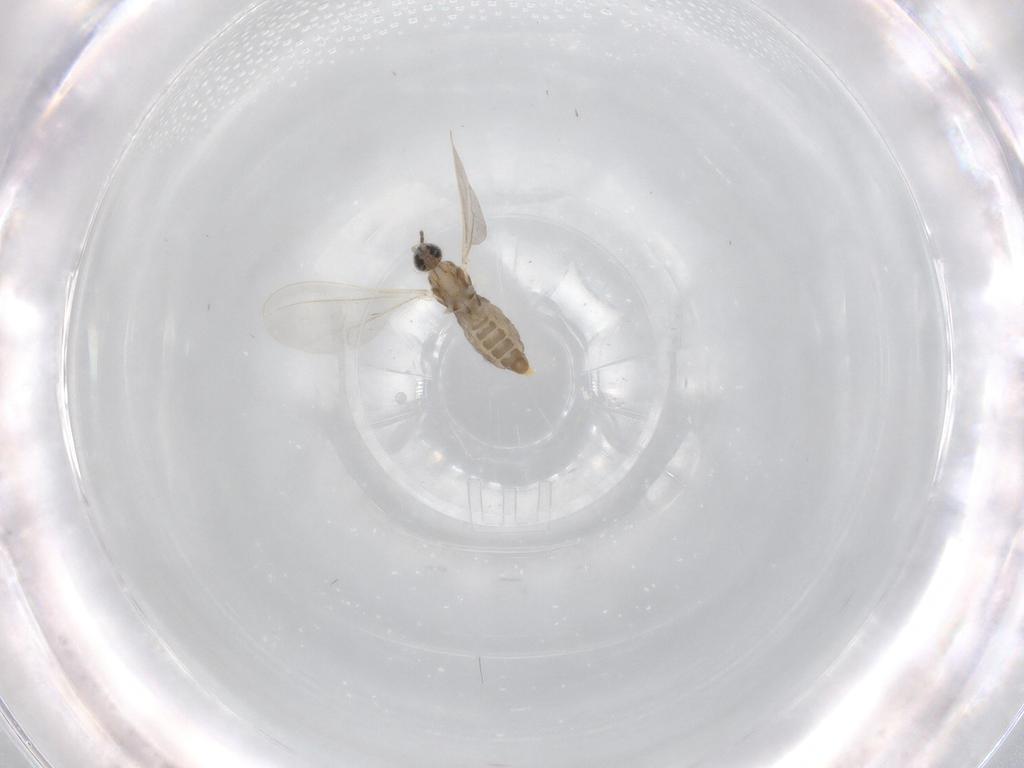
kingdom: Animalia
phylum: Arthropoda
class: Insecta
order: Diptera
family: Cecidomyiidae
